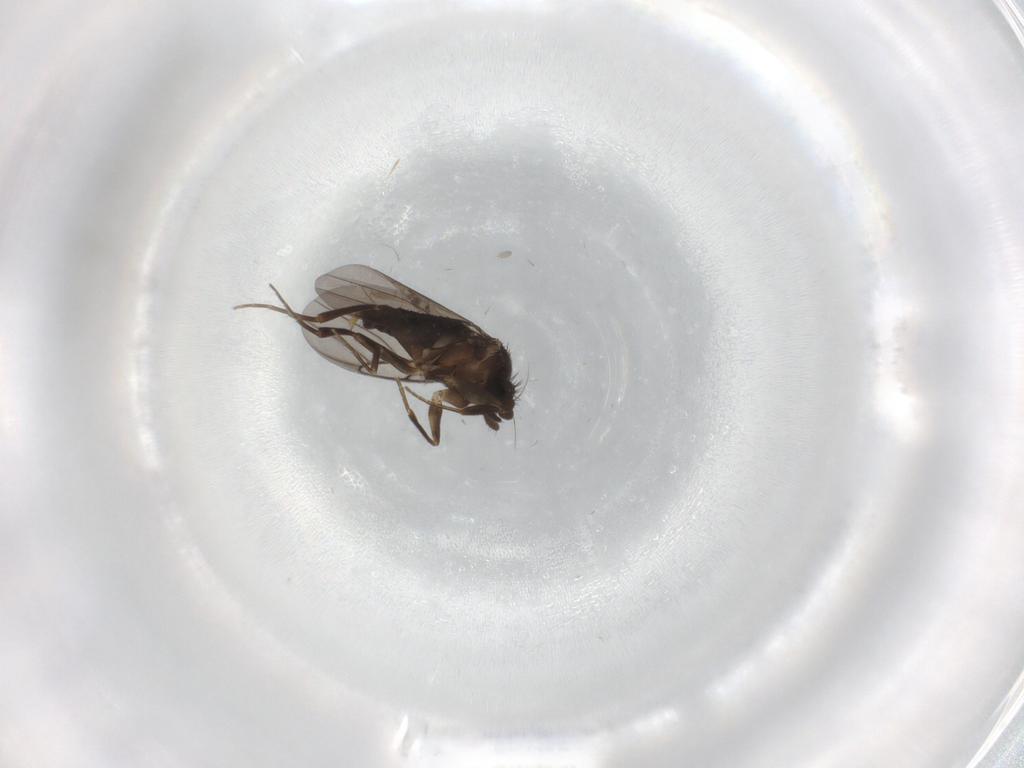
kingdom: Animalia
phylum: Arthropoda
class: Insecta
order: Diptera
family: Phoridae
